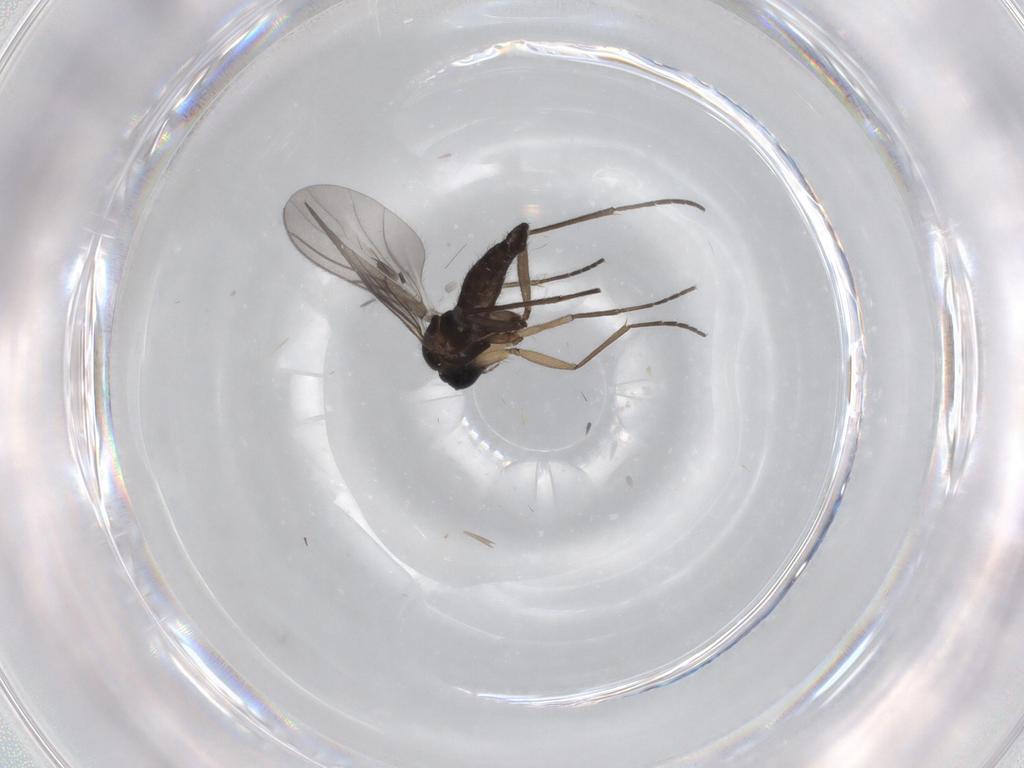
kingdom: Animalia
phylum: Arthropoda
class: Insecta
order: Diptera
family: Sciaridae
